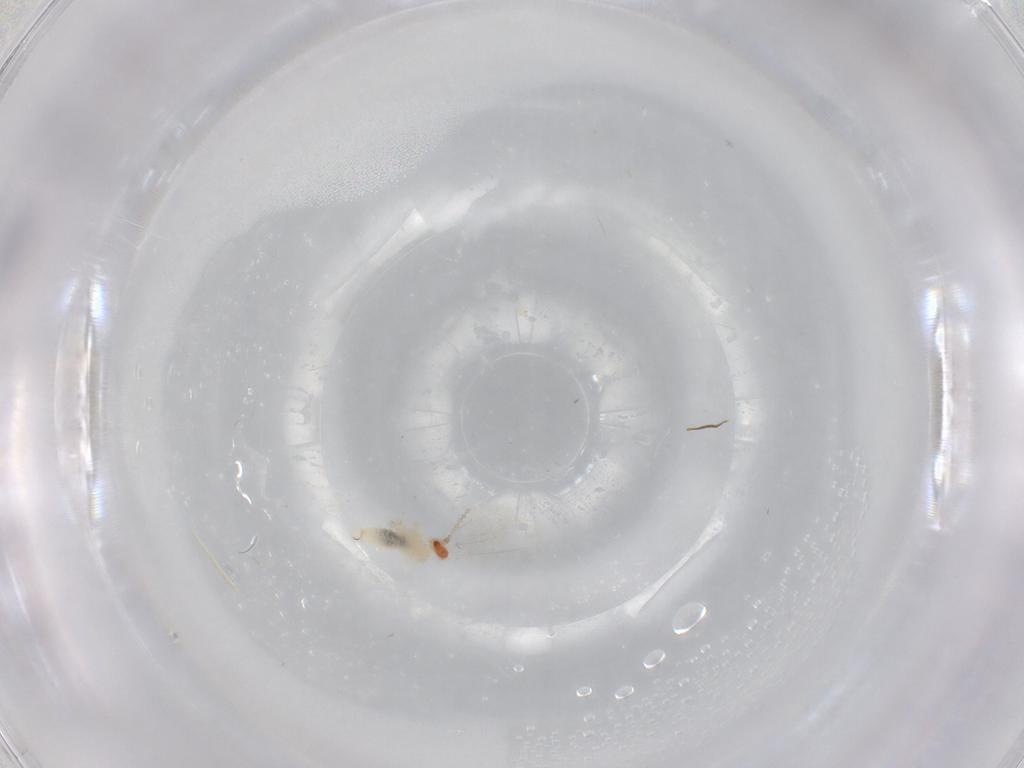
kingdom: Animalia
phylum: Arthropoda
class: Insecta
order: Diptera
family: Cecidomyiidae
